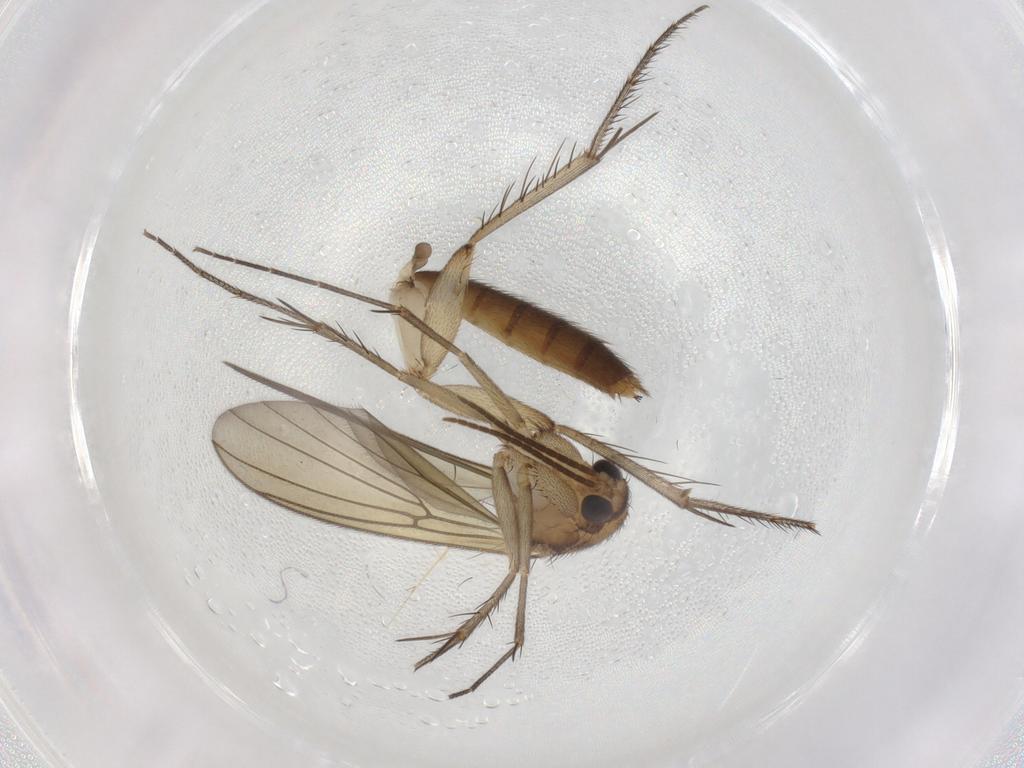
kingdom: Animalia
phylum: Arthropoda
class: Insecta
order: Diptera
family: Mycetophilidae
